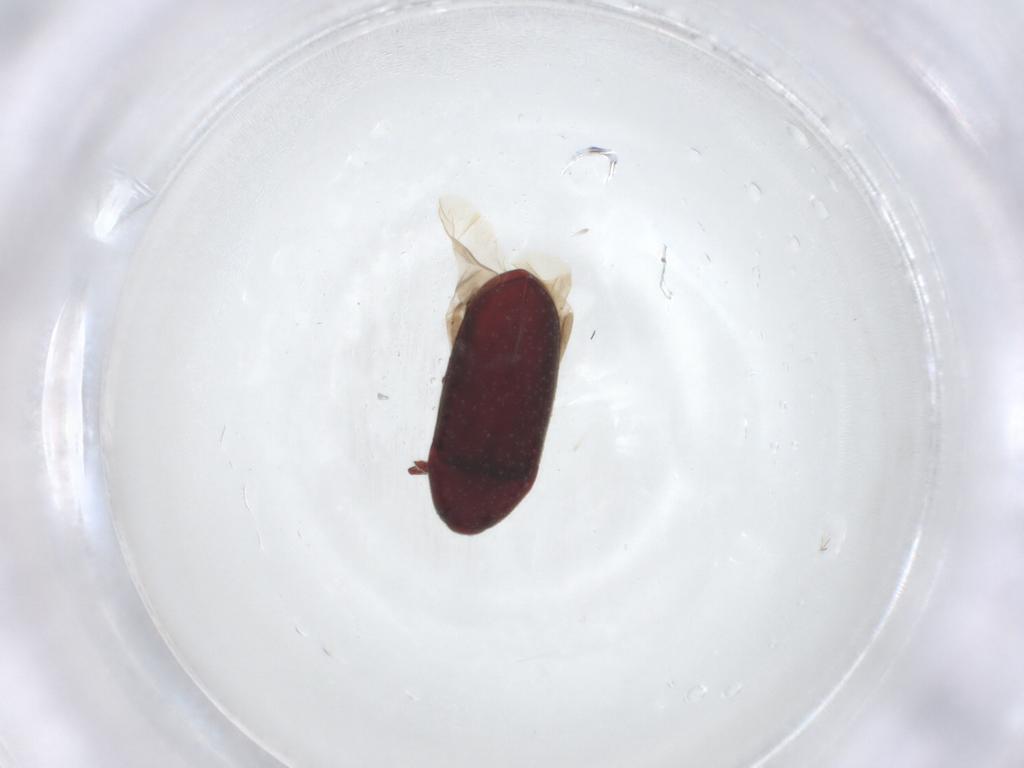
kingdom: Animalia
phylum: Arthropoda
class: Insecta
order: Coleoptera
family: Throscidae
